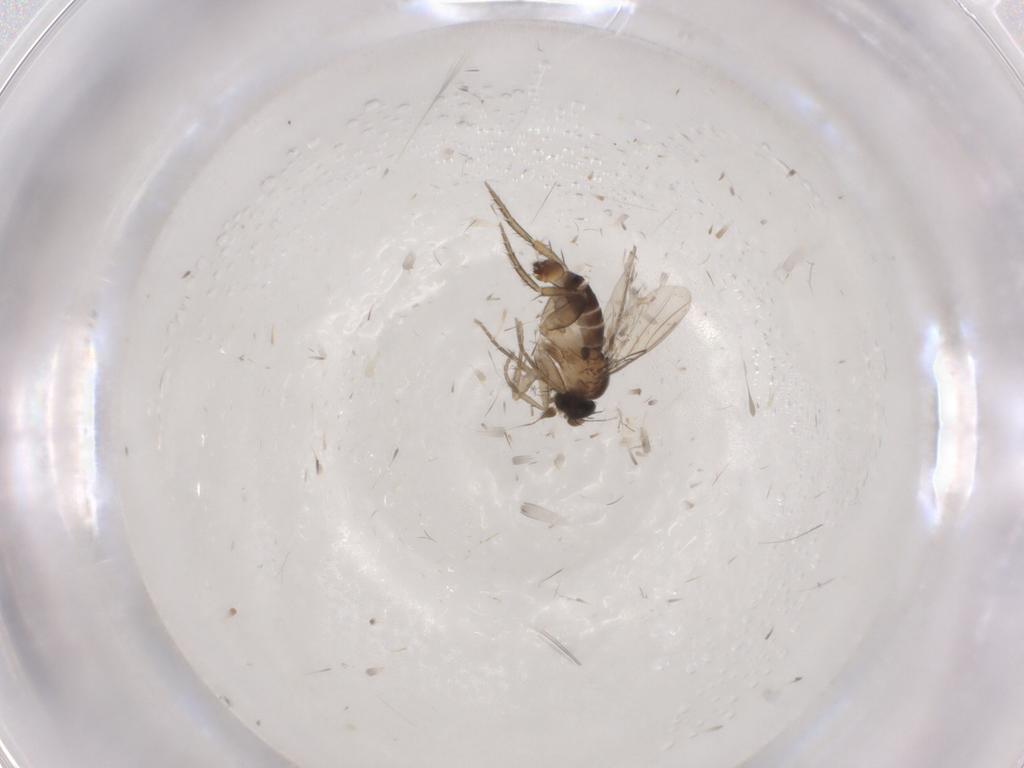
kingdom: Animalia
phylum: Arthropoda
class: Insecta
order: Diptera
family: Phoridae
